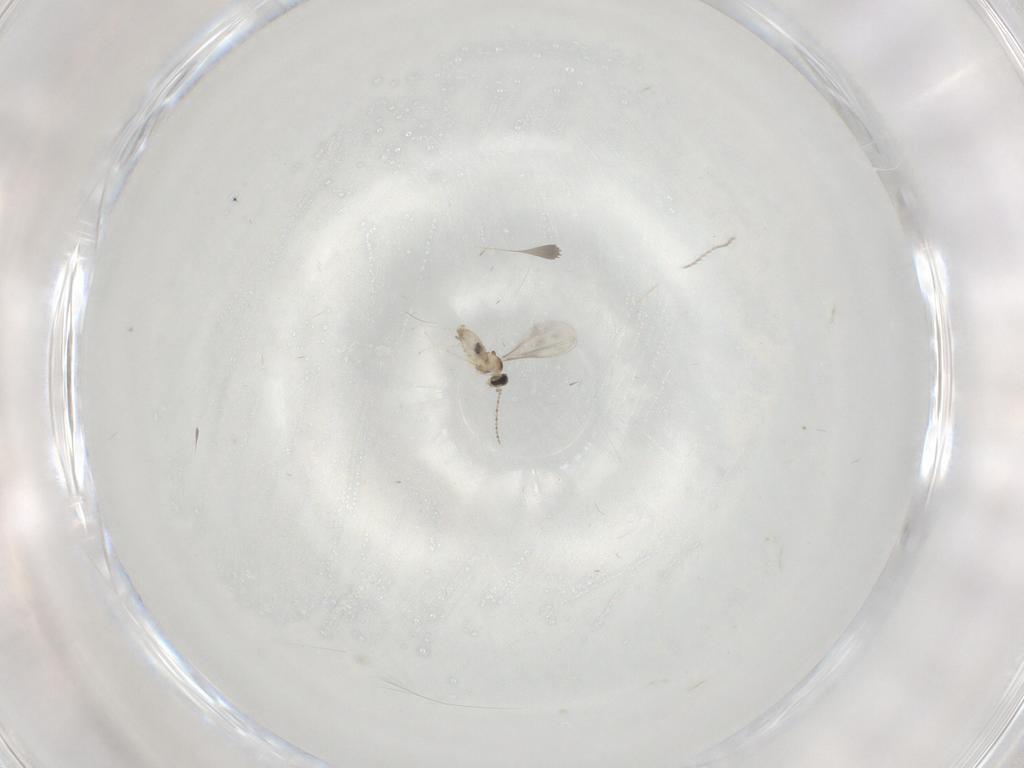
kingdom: Animalia
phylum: Arthropoda
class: Insecta
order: Diptera
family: Cecidomyiidae
